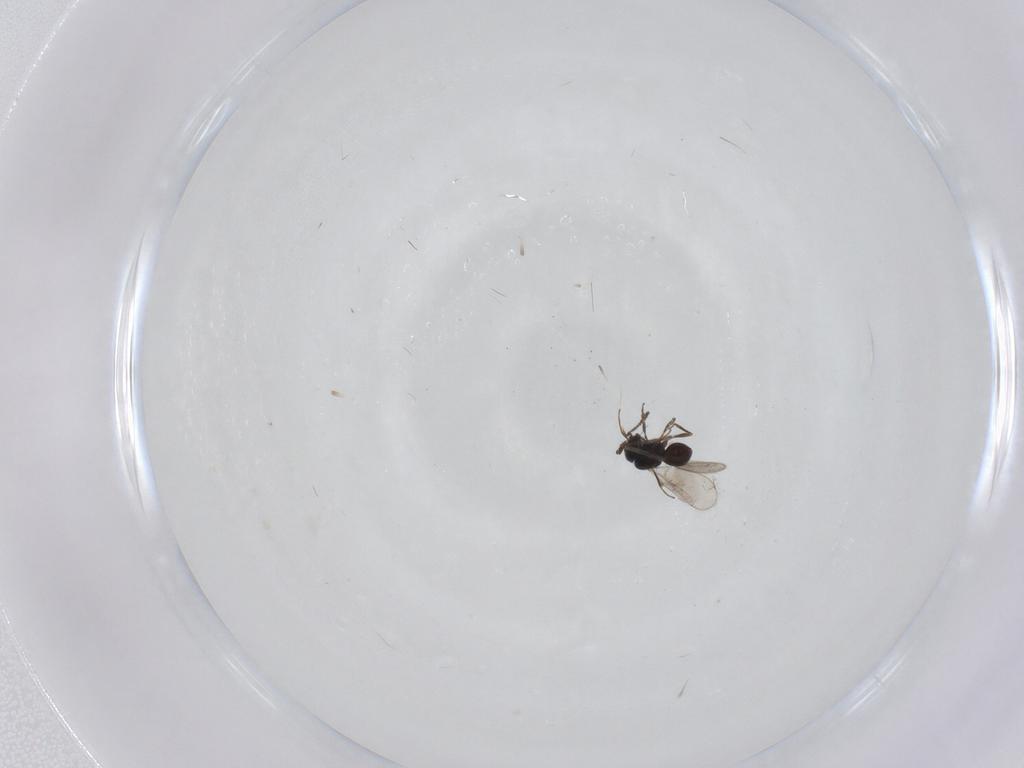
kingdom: Animalia
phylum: Arthropoda
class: Insecta
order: Hymenoptera
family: Scelionidae
